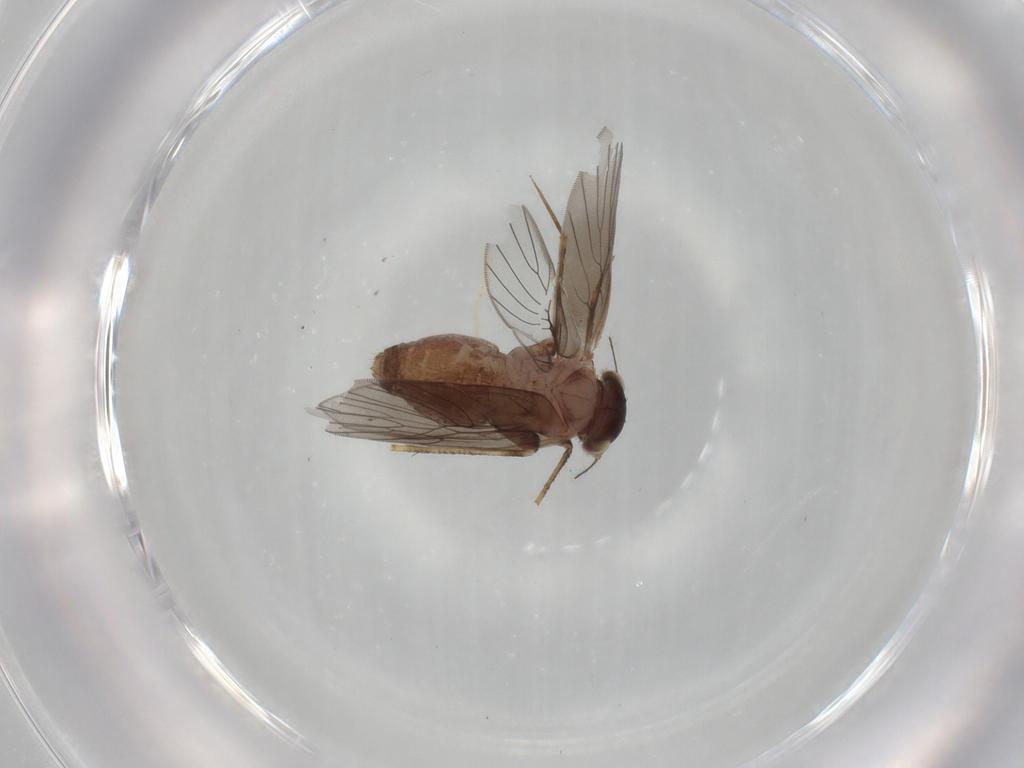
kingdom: Animalia
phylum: Arthropoda
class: Insecta
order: Psocodea
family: Lepidopsocidae
